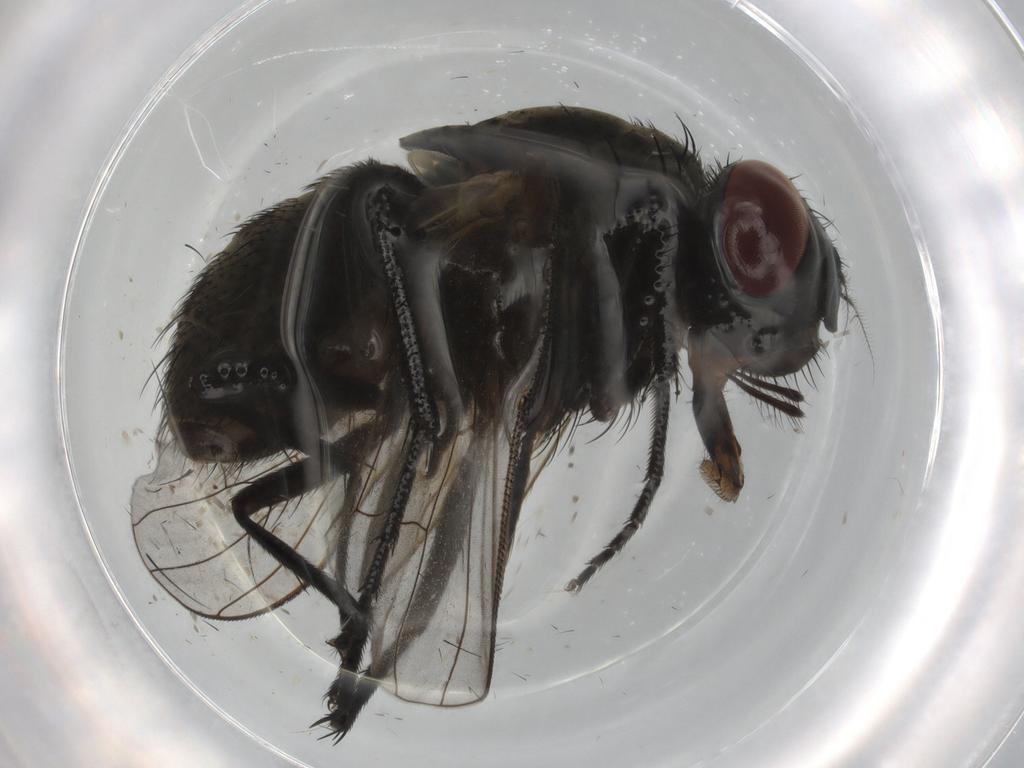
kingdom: Animalia
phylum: Arthropoda
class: Insecta
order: Diptera
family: Muscidae
